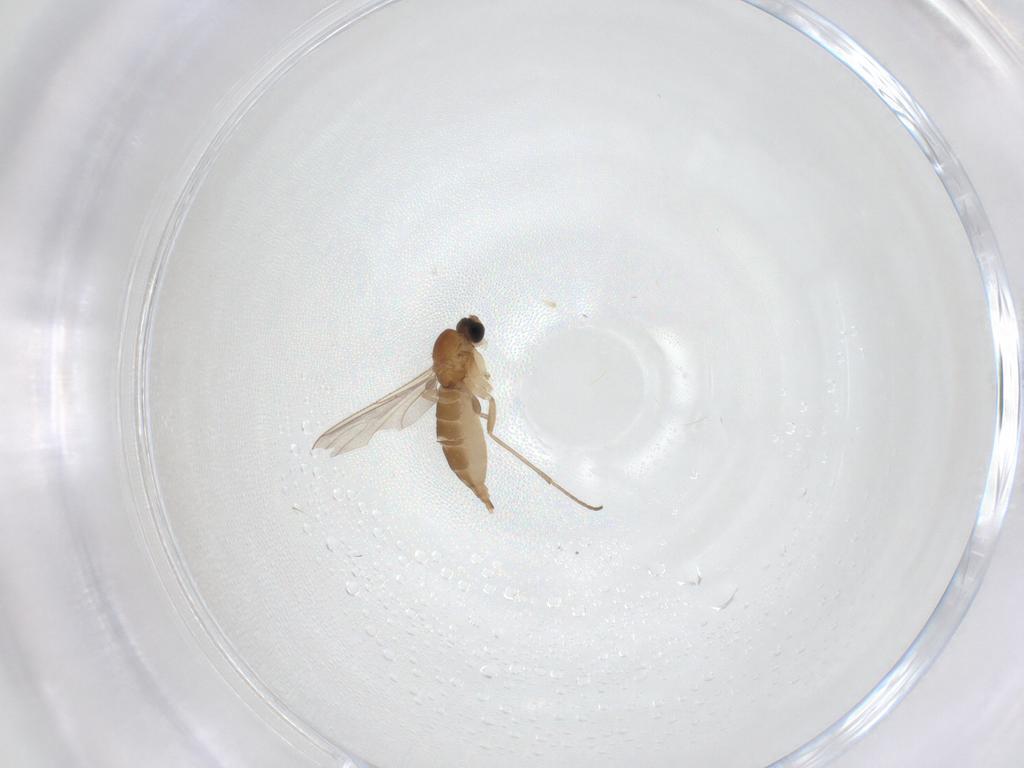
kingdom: Animalia
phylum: Arthropoda
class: Insecta
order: Diptera
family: Sciaridae
